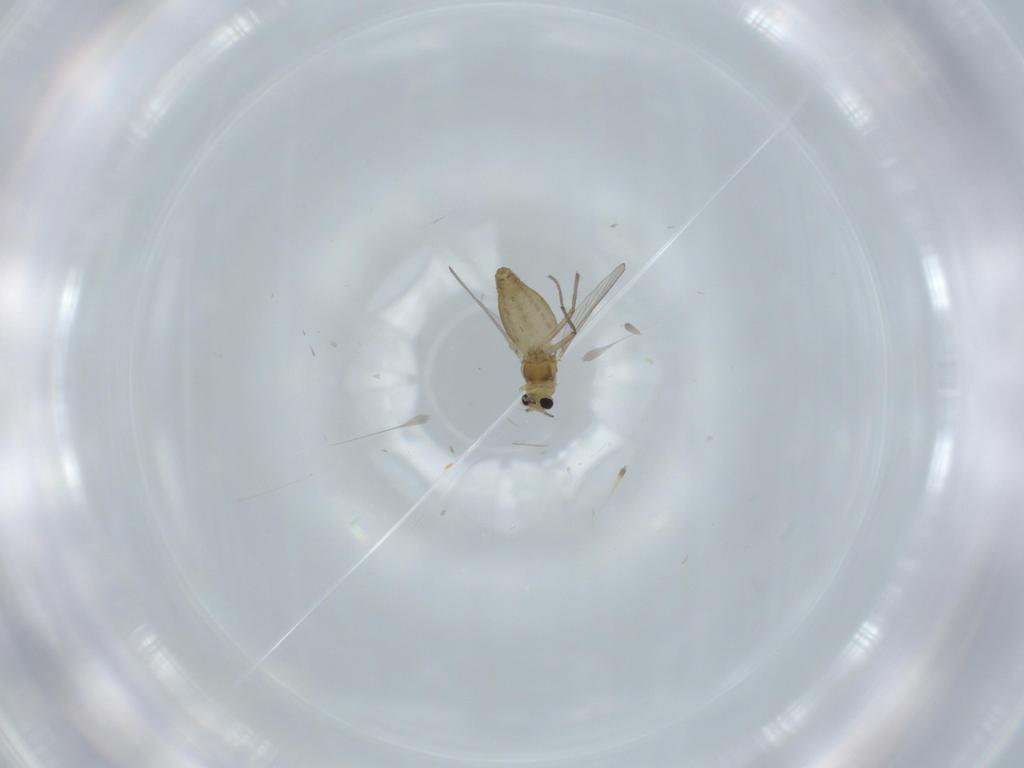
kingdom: Animalia
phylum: Arthropoda
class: Insecta
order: Diptera
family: Chironomidae
